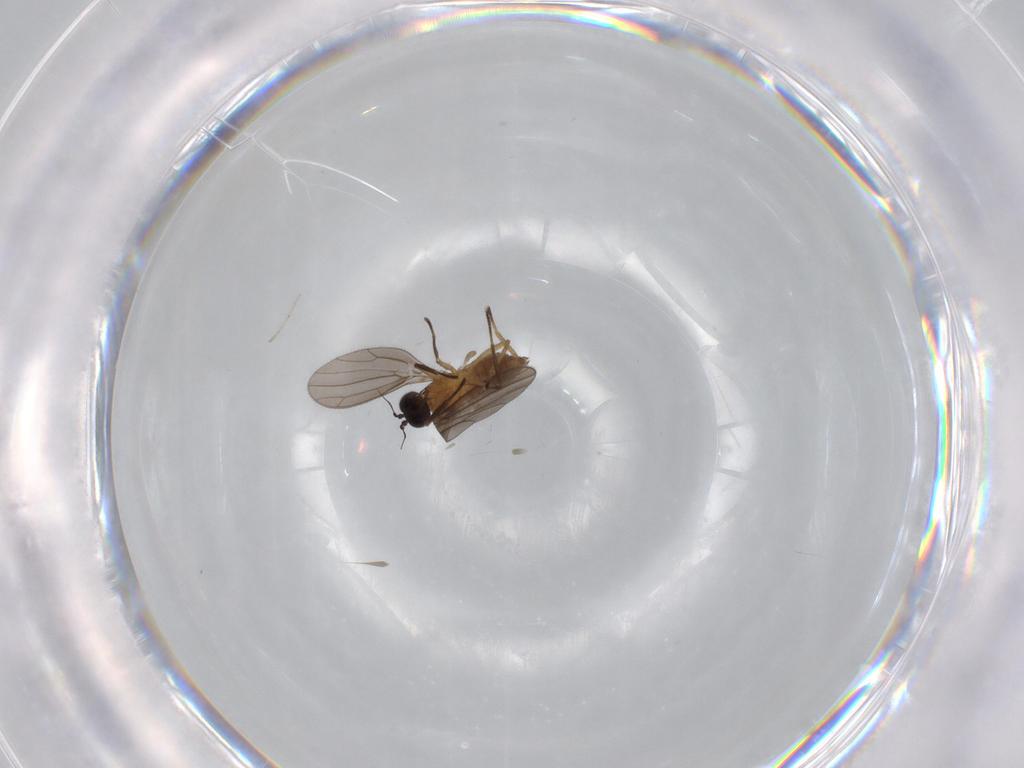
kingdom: Animalia
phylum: Arthropoda
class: Insecta
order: Diptera
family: Empididae
